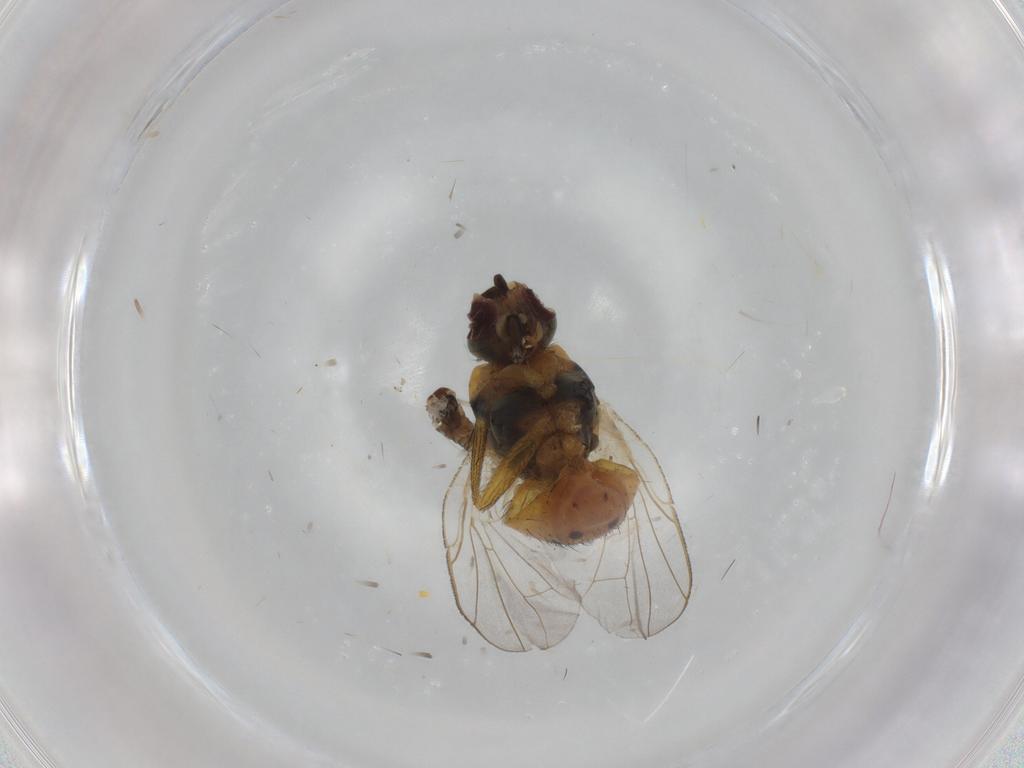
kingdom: Animalia
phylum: Arthropoda
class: Insecta
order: Diptera
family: Muscidae
